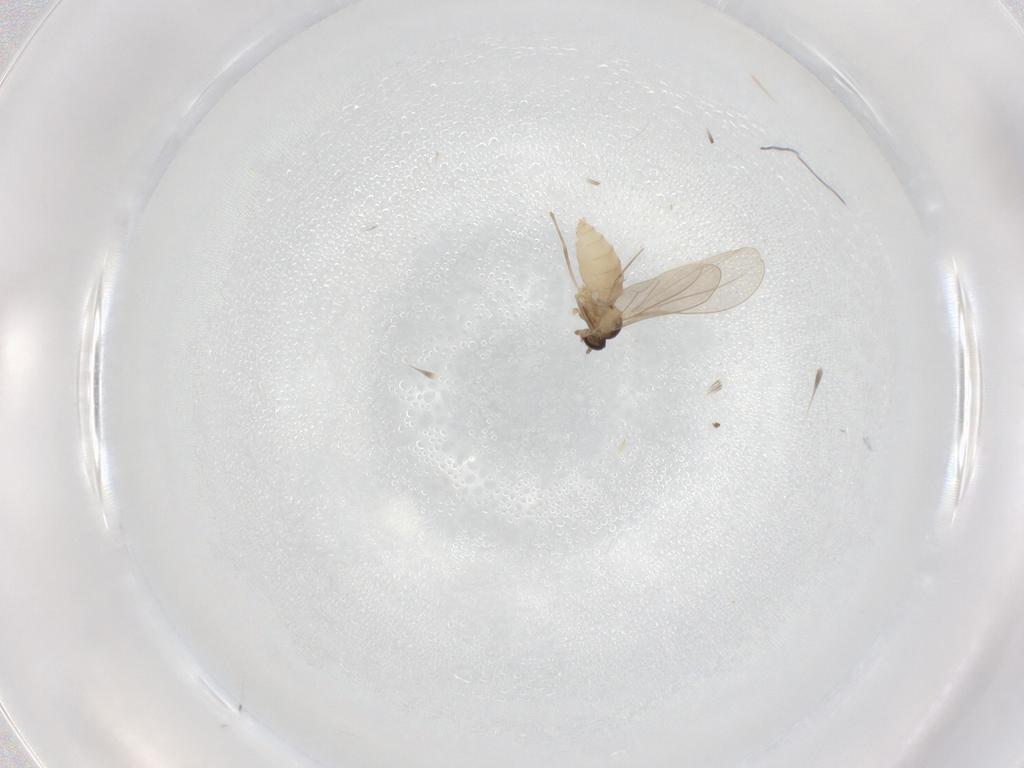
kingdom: Animalia
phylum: Arthropoda
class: Insecta
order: Diptera
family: Cecidomyiidae
